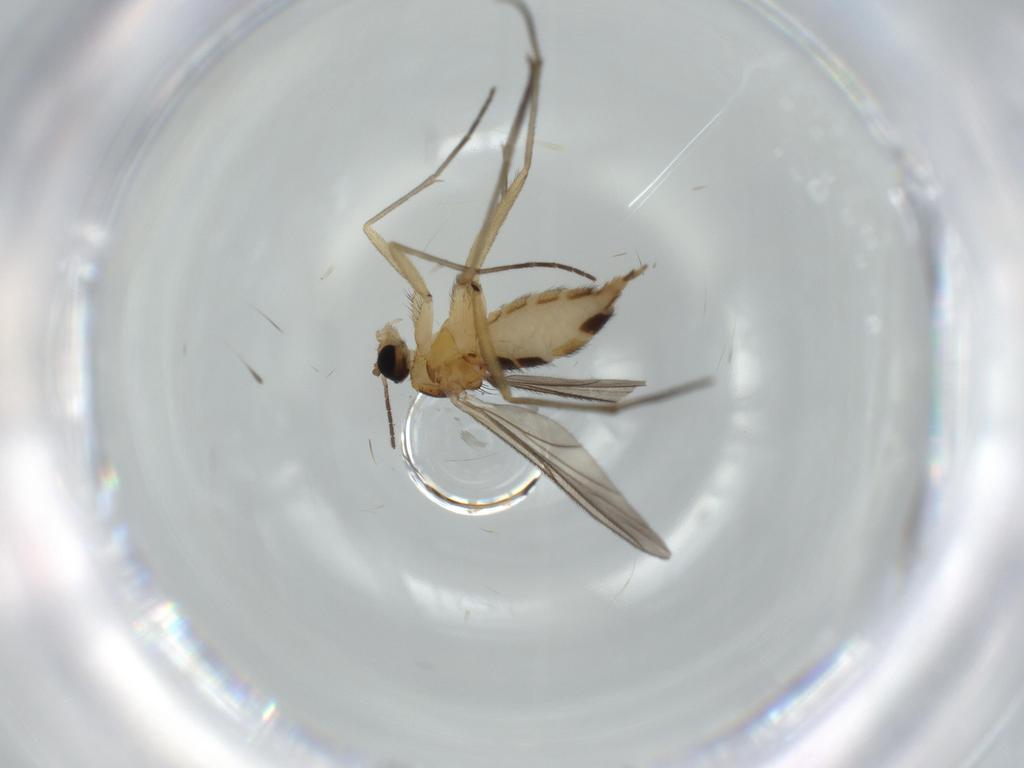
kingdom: Animalia
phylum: Arthropoda
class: Insecta
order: Diptera
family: Sciaridae
